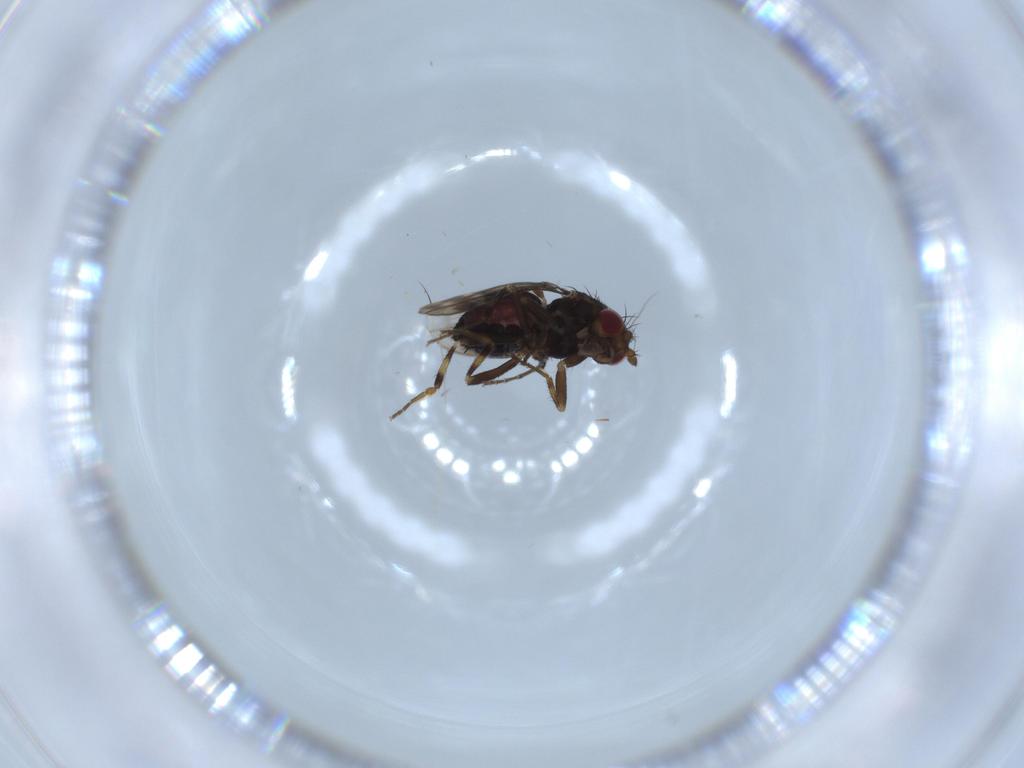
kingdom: Animalia
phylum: Arthropoda
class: Insecta
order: Diptera
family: Sphaeroceridae
